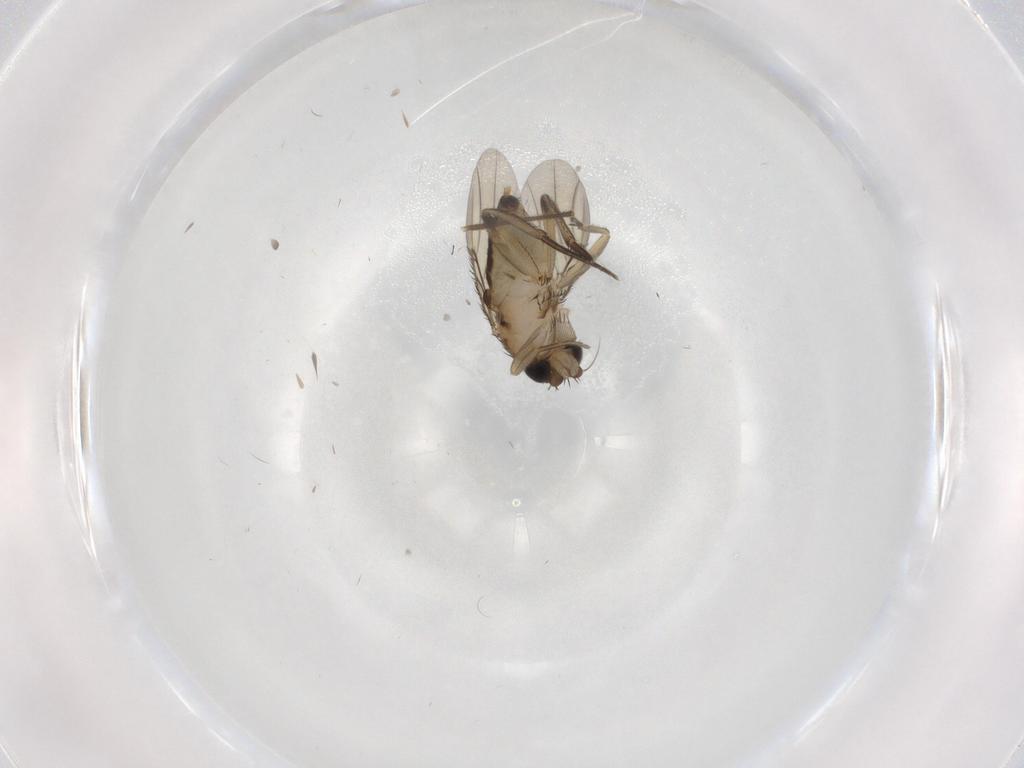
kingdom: Animalia
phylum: Arthropoda
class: Insecta
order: Diptera
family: Phoridae
